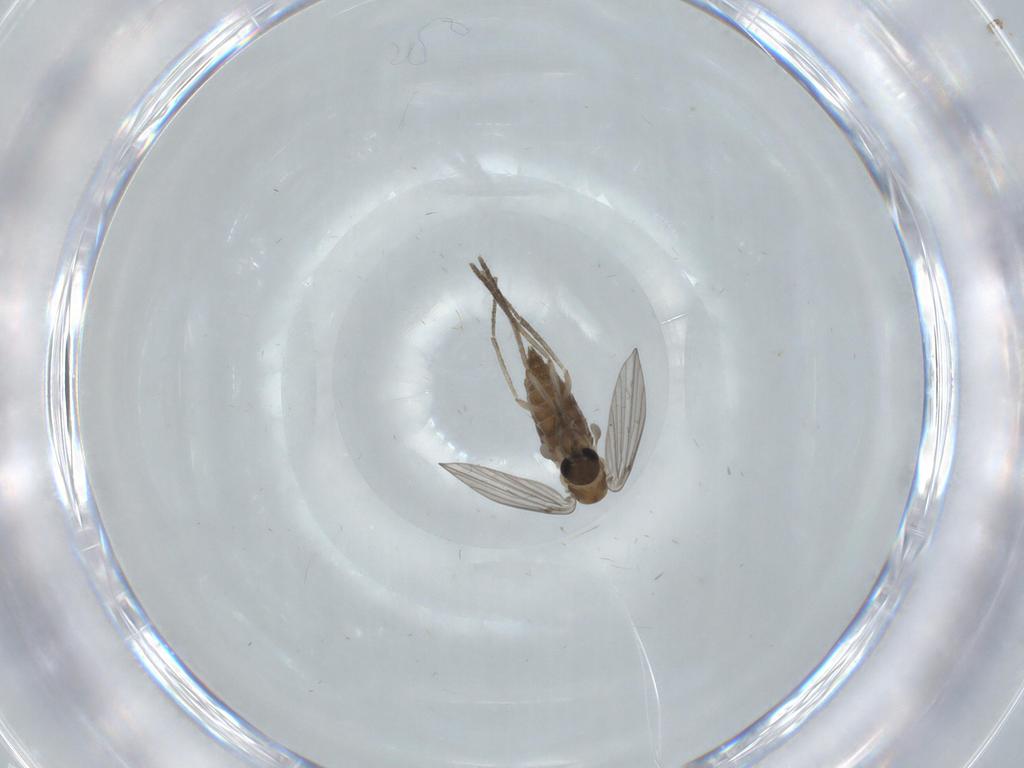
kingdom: Animalia
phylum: Arthropoda
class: Insecta
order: Diptera
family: Psychodidae
